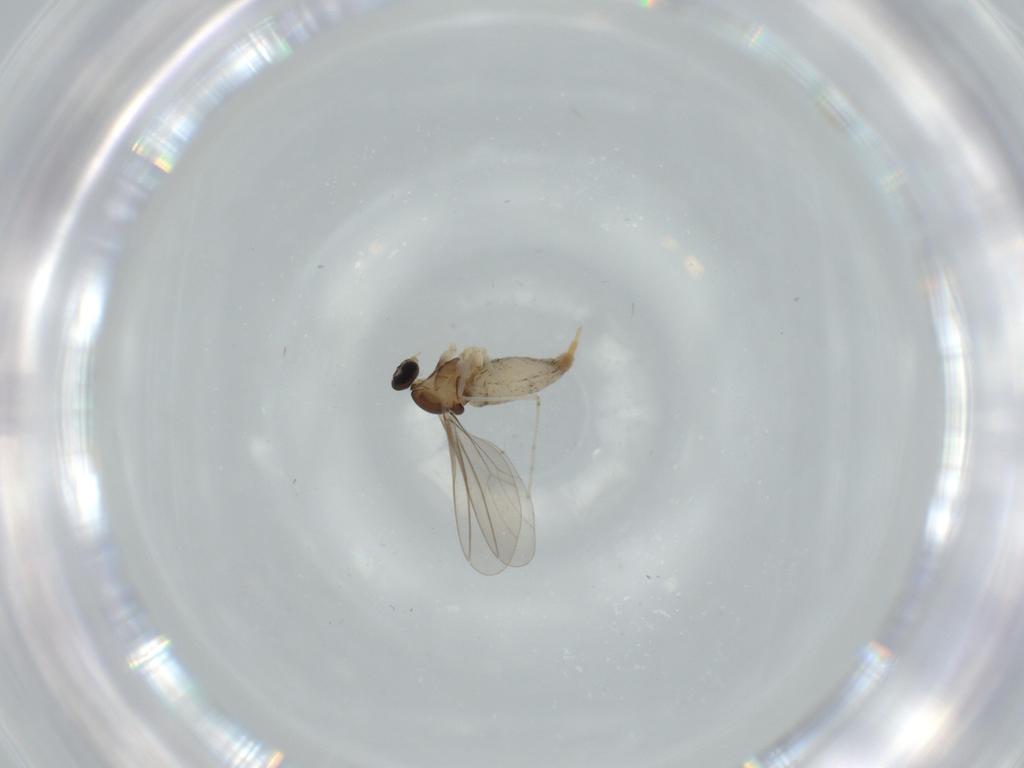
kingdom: Animalia
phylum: Arthropoda
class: Insecta
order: Diptera
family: Cecidomyiidae
